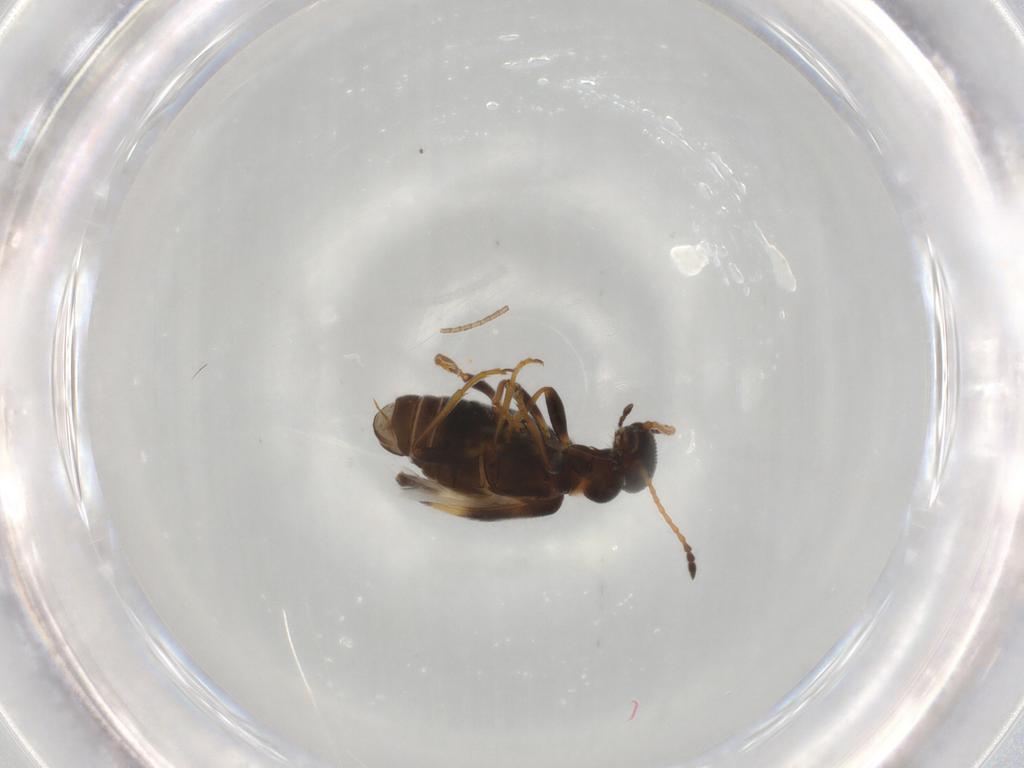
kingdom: Animalia
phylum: Arthropoda
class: Insecta
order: Coleoptera
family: Anthicidae
